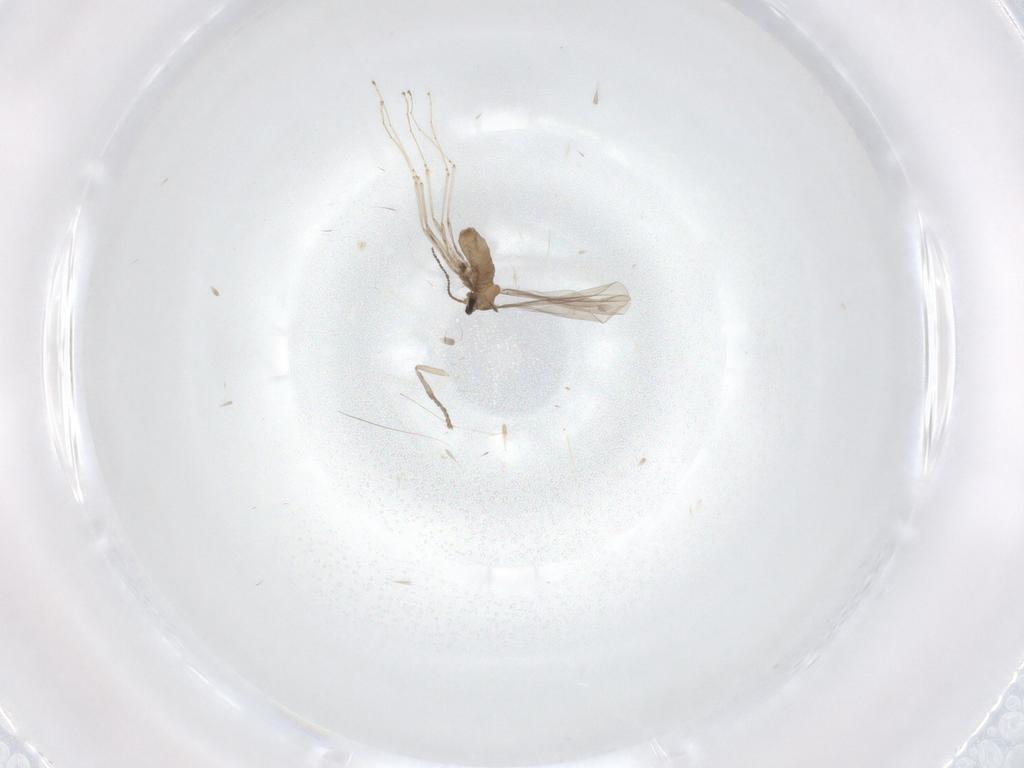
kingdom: Animalia
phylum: Arthropoda
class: Insecta
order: Diptera
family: Cecidomyiidae
